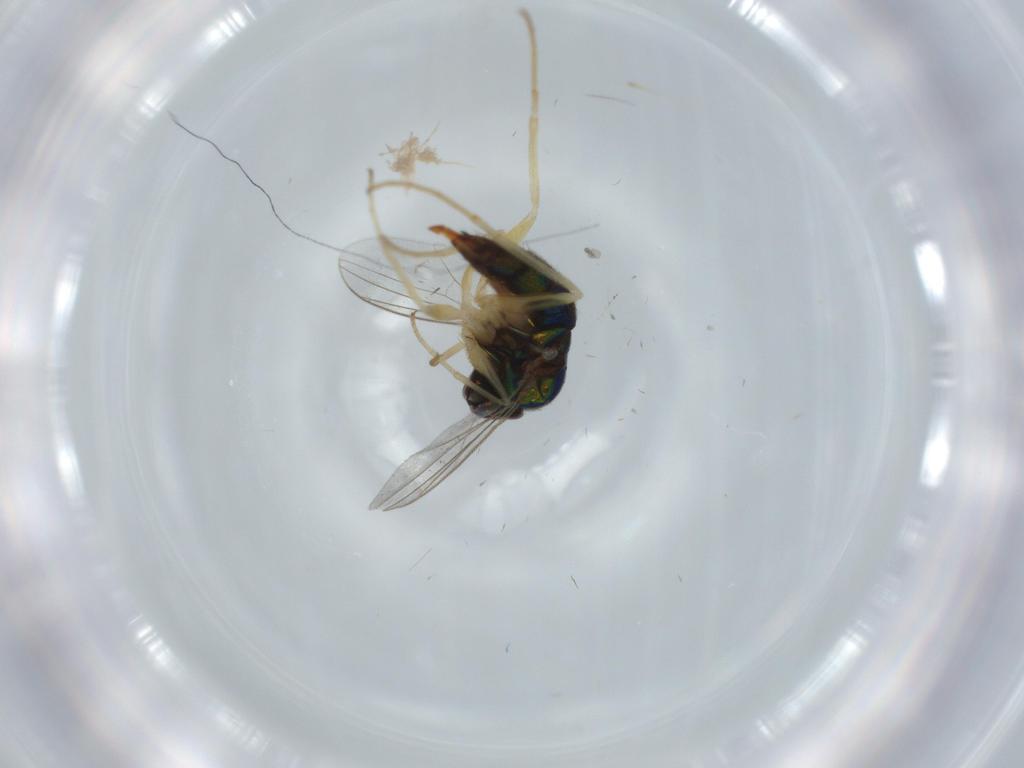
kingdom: Animalia
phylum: Arthropoda
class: Insecta
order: Diptera
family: Dolichopodidae
